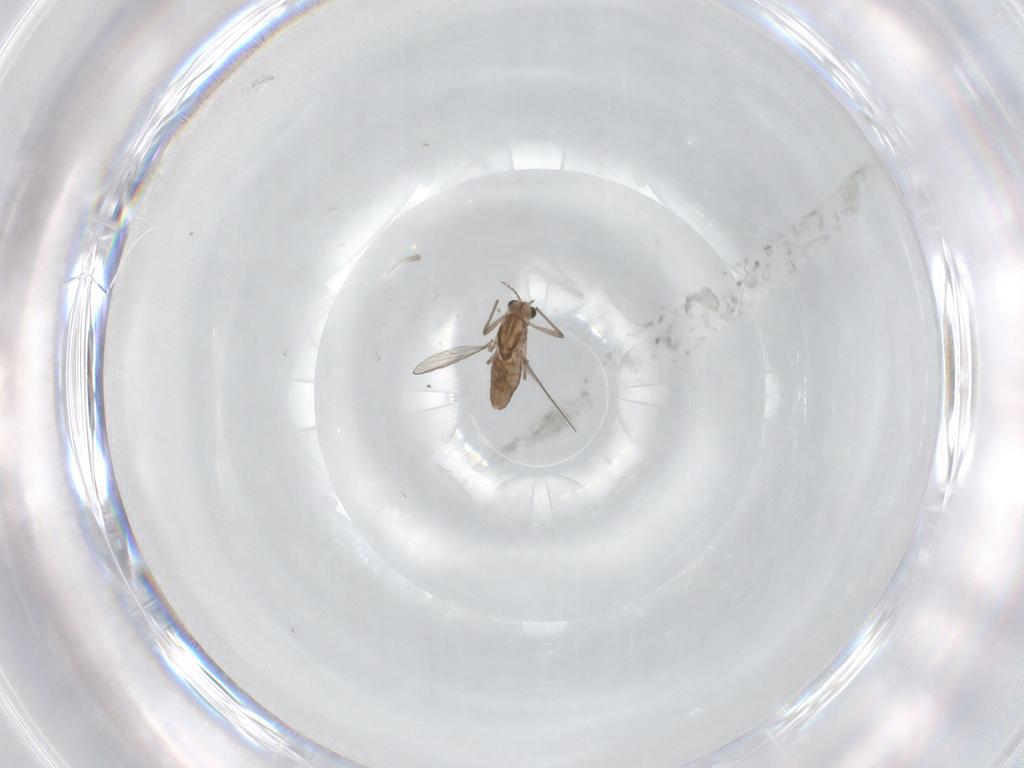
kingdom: Animalia
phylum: Arthropoda
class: Insecta
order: Diptera
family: Chironomidae
